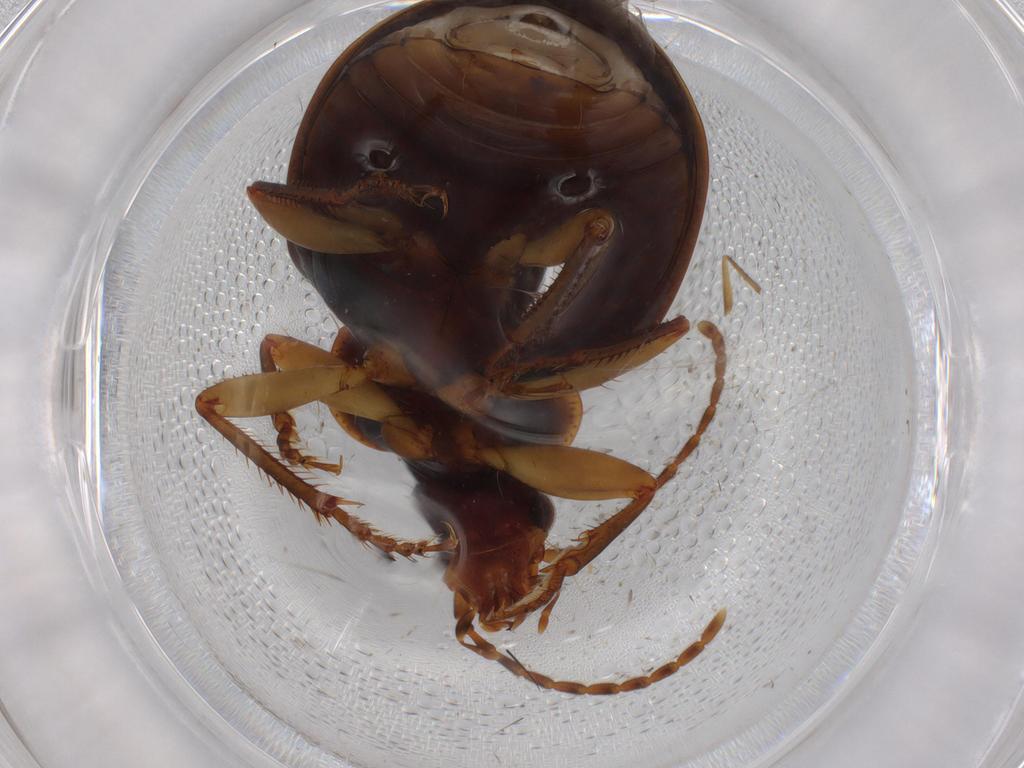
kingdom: Animalia
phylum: Arthropoda
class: Insecta
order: Coleoptera
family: Carabidae
